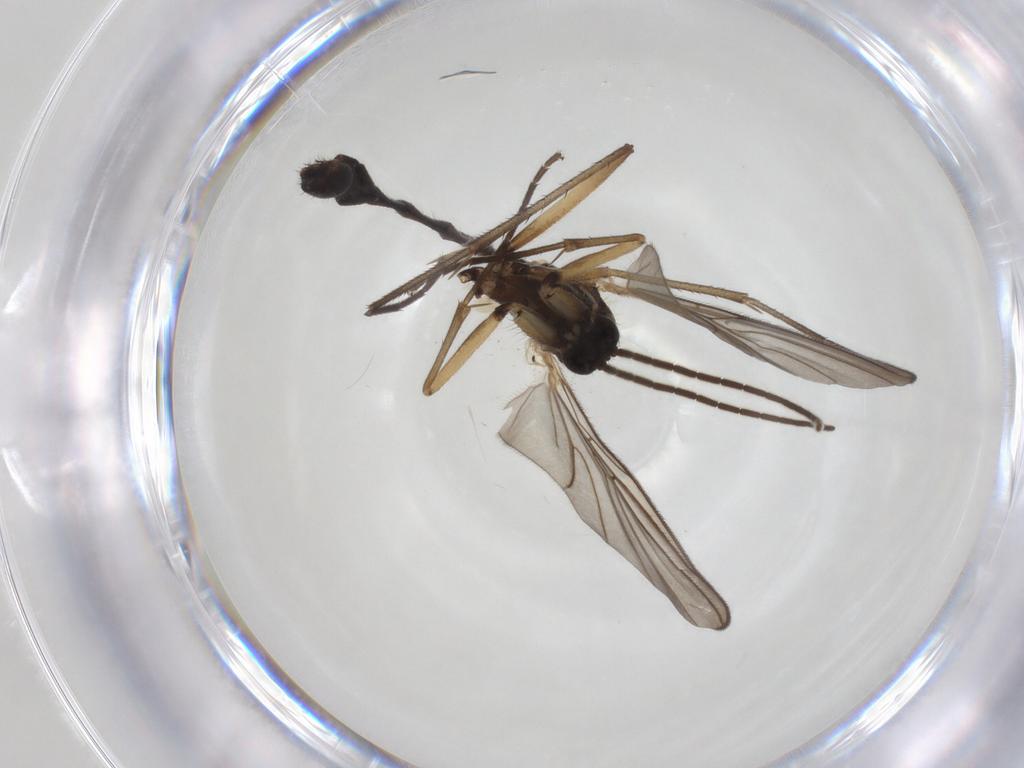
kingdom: Animalia
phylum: Arthropoda
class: Insecta
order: Diptera
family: Mycetophilidae
